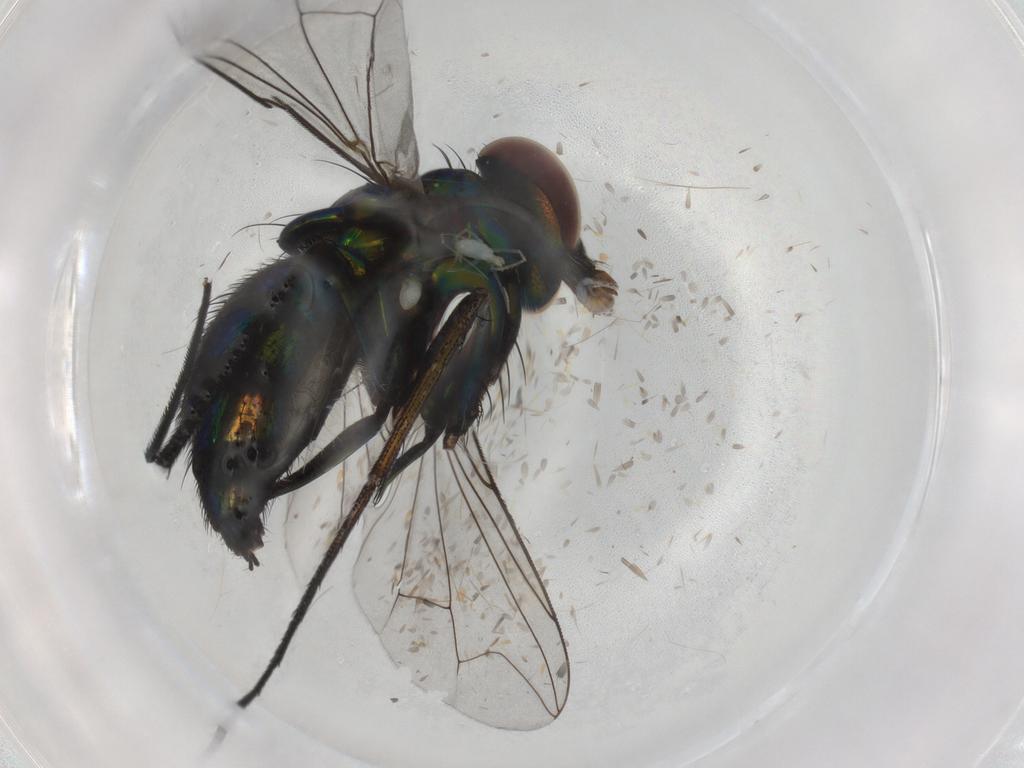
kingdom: Animalia
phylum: Arthropoda
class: Insecta
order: Diptera
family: Dolichopodidae
